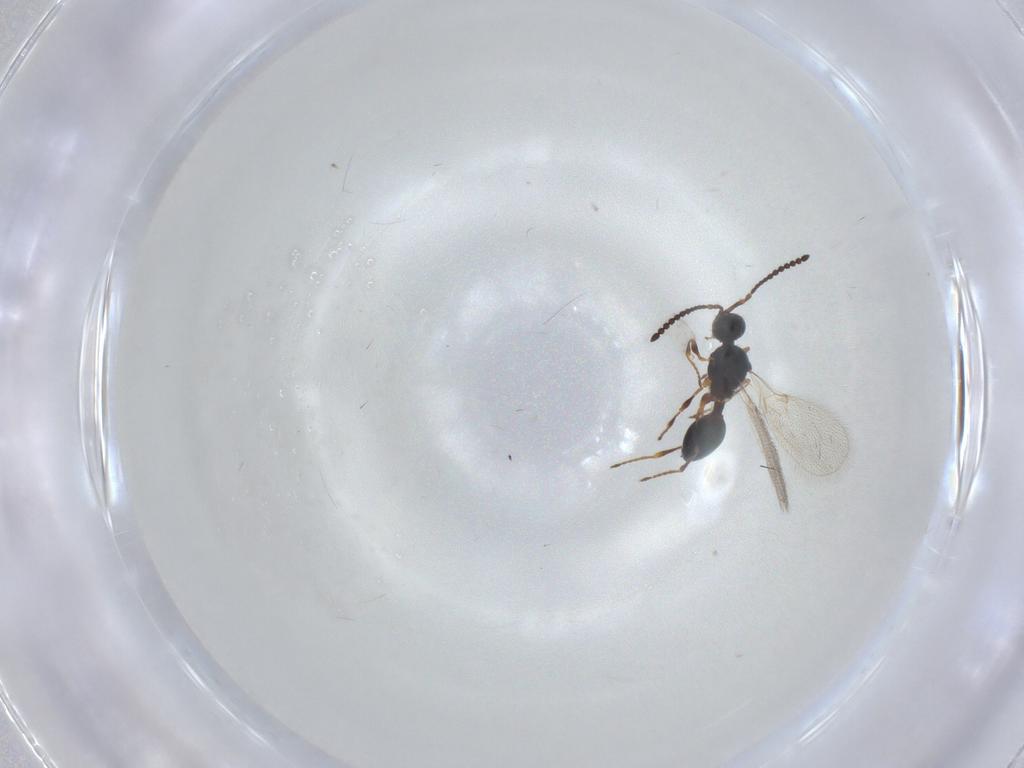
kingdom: Animalia
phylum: Arthropoda
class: Insecta
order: Hymenoptera
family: Diapriidae
